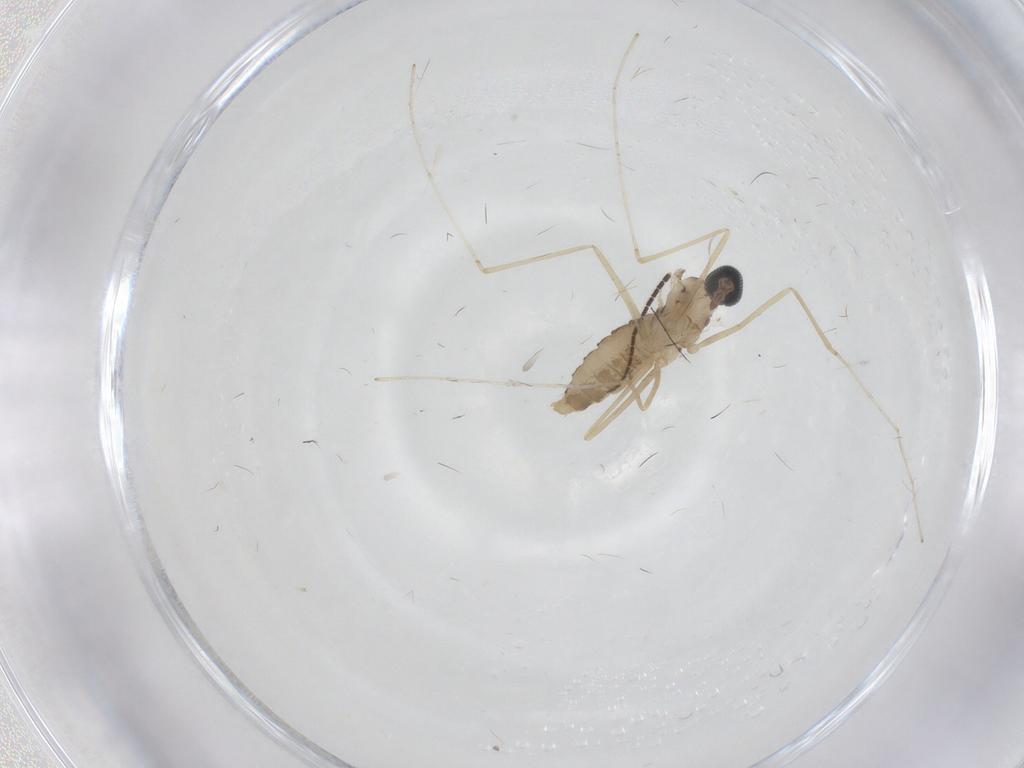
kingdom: Animalia
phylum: Arthropoda
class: Insecta
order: Diptera
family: Cecidomyiidae
